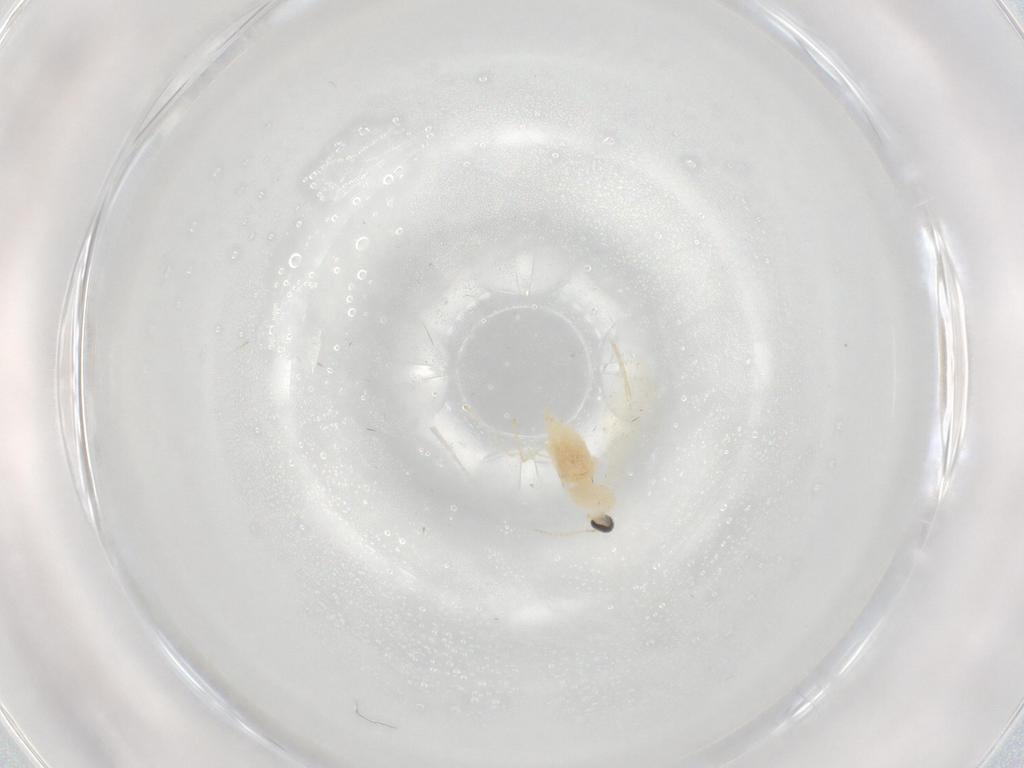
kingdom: Animalia
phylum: Arthropoda
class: Insecta
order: Diptera
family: Cecidomyiidae
